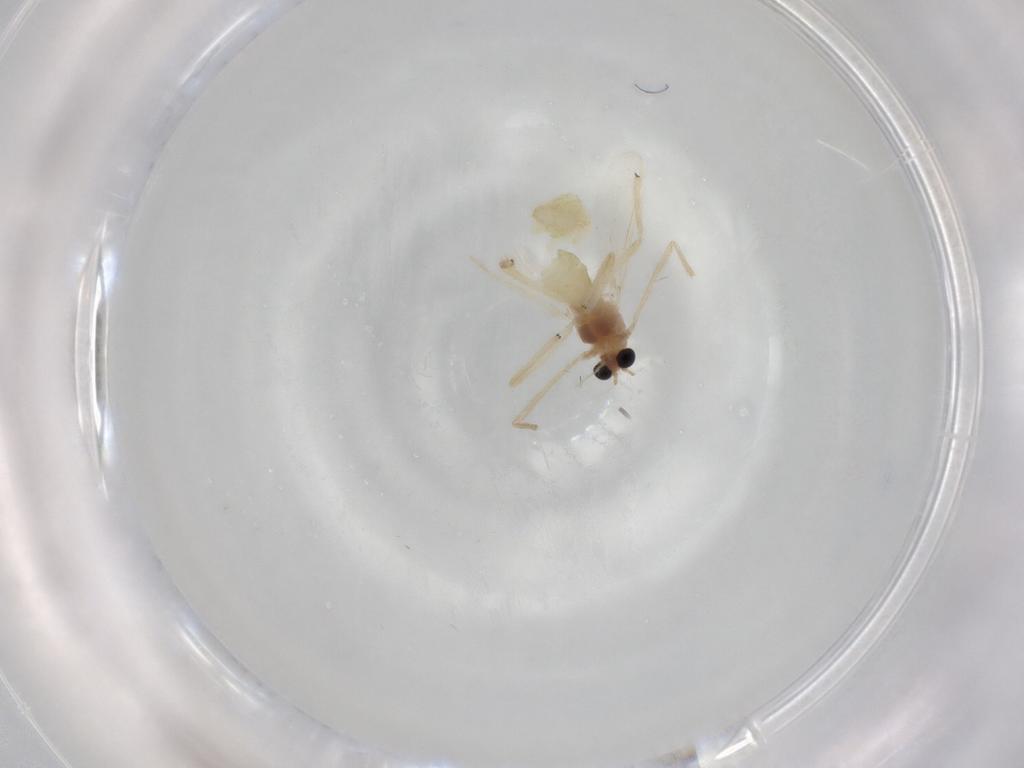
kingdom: Animalia
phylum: Arthropoda
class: Insecta
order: Diptera
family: Chironomidae
